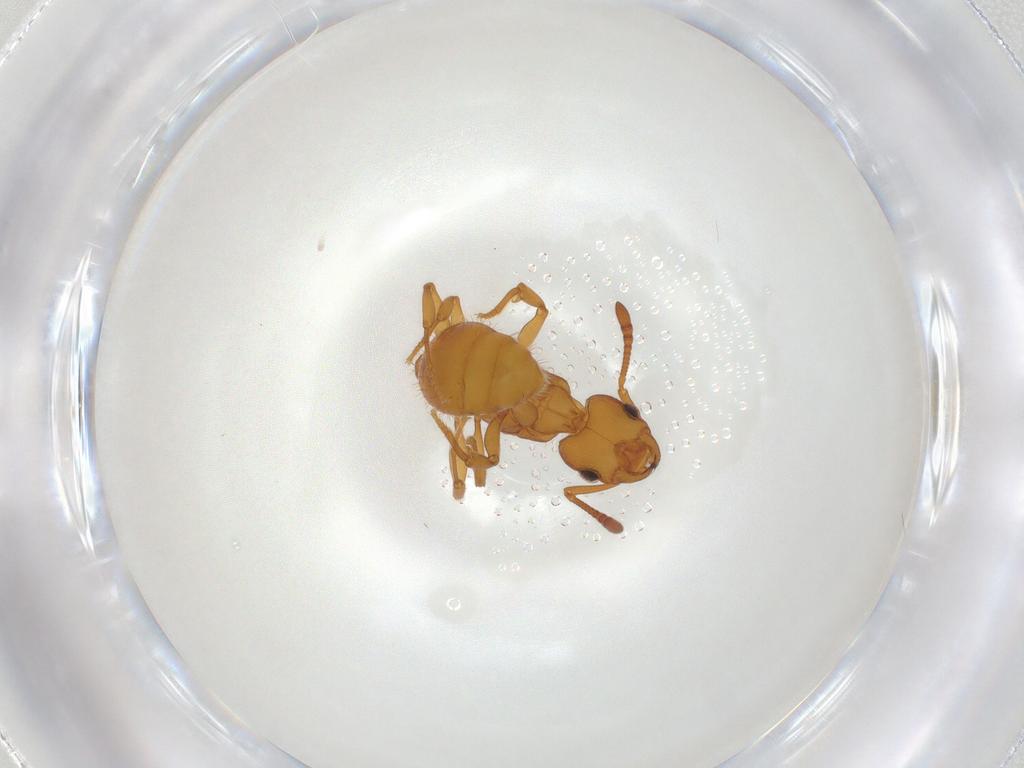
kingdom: Animalia
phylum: Arthropoda
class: Insecta
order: Hymenoptera
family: Formicidae
